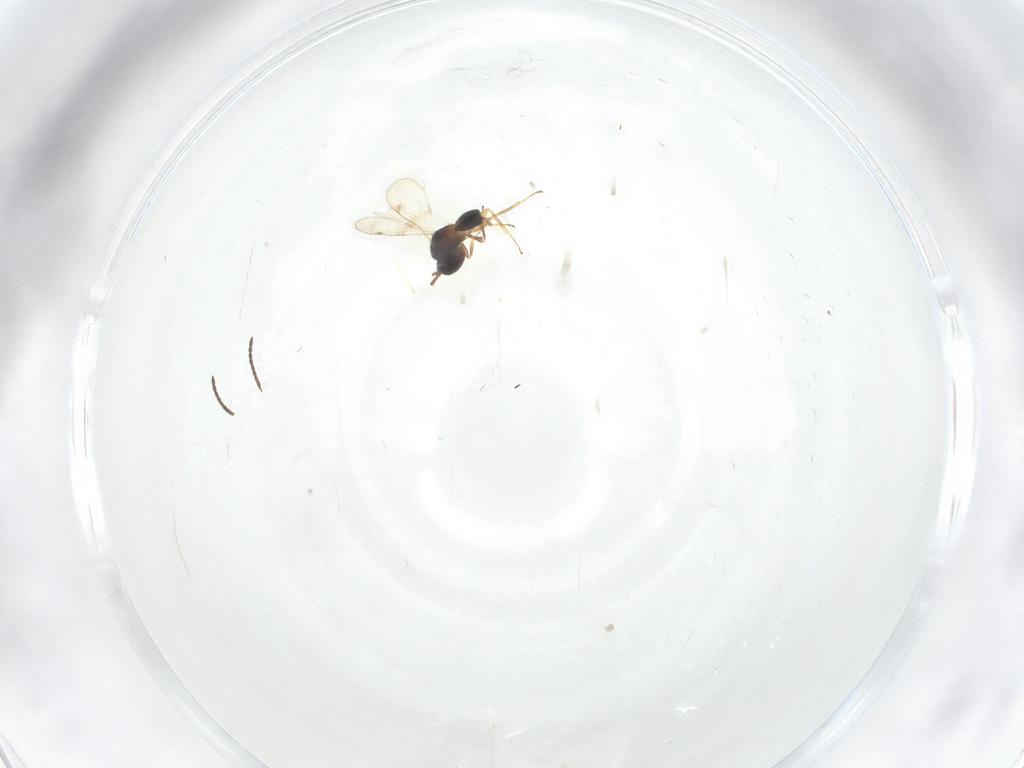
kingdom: Animalia
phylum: Arthropoda
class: Insecta
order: Hymenoptera
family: Diparidae
